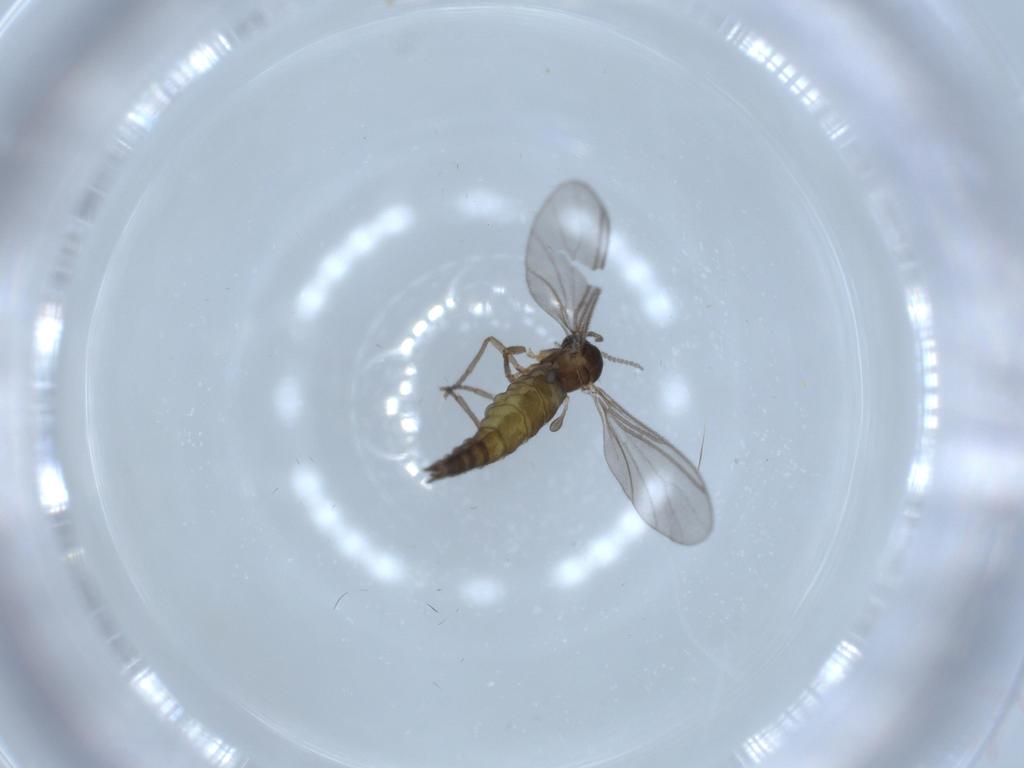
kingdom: Animalia
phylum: Arthropoda
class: Insecta
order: Diptera
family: Sciaridae
